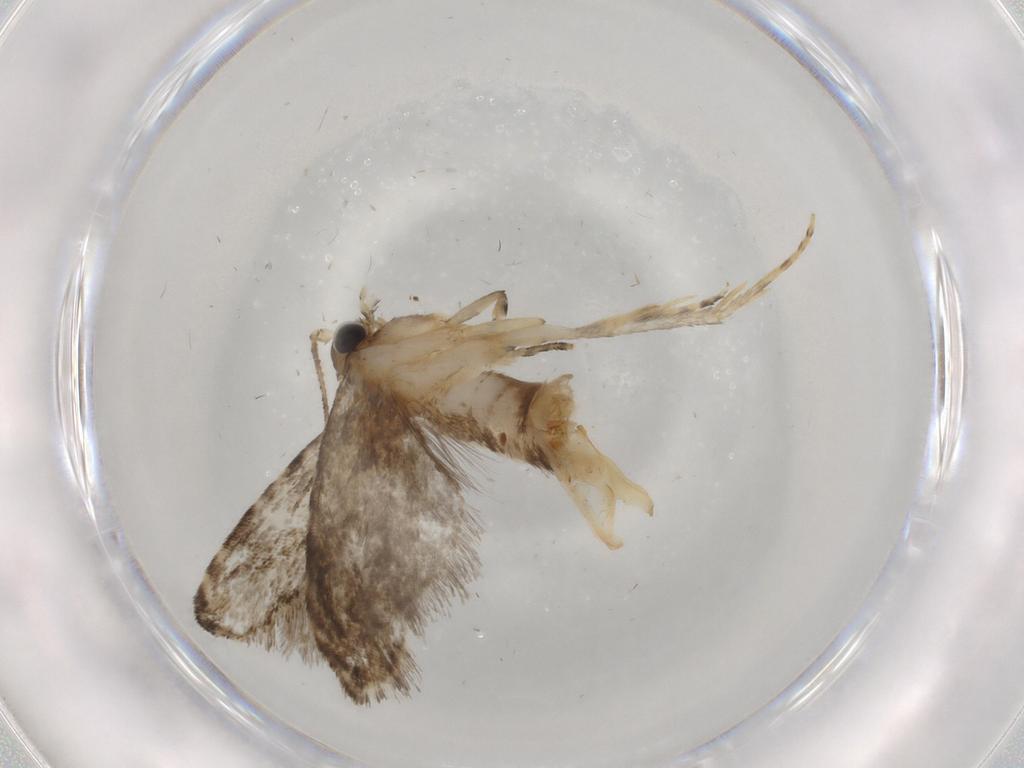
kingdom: Animalia
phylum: Arthropoda
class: Insecta
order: Lepidoptera
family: Tineidae
